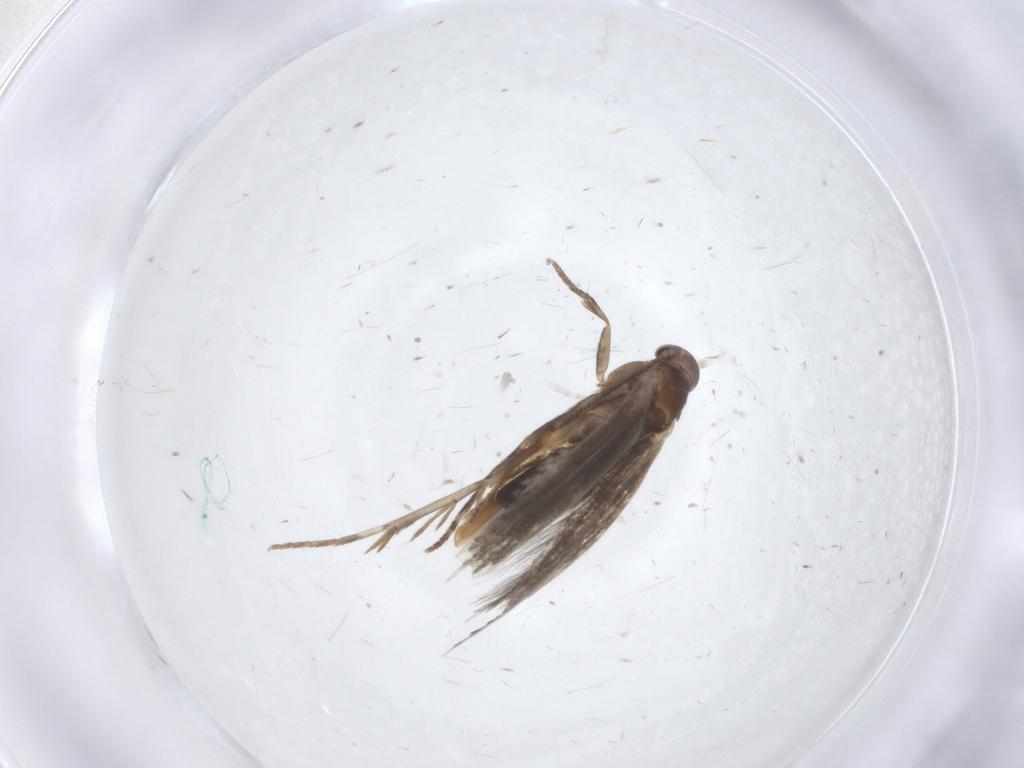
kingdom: Animalia
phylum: Arthropoda
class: Insecta
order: Lepidoptera
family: Elachistidae
